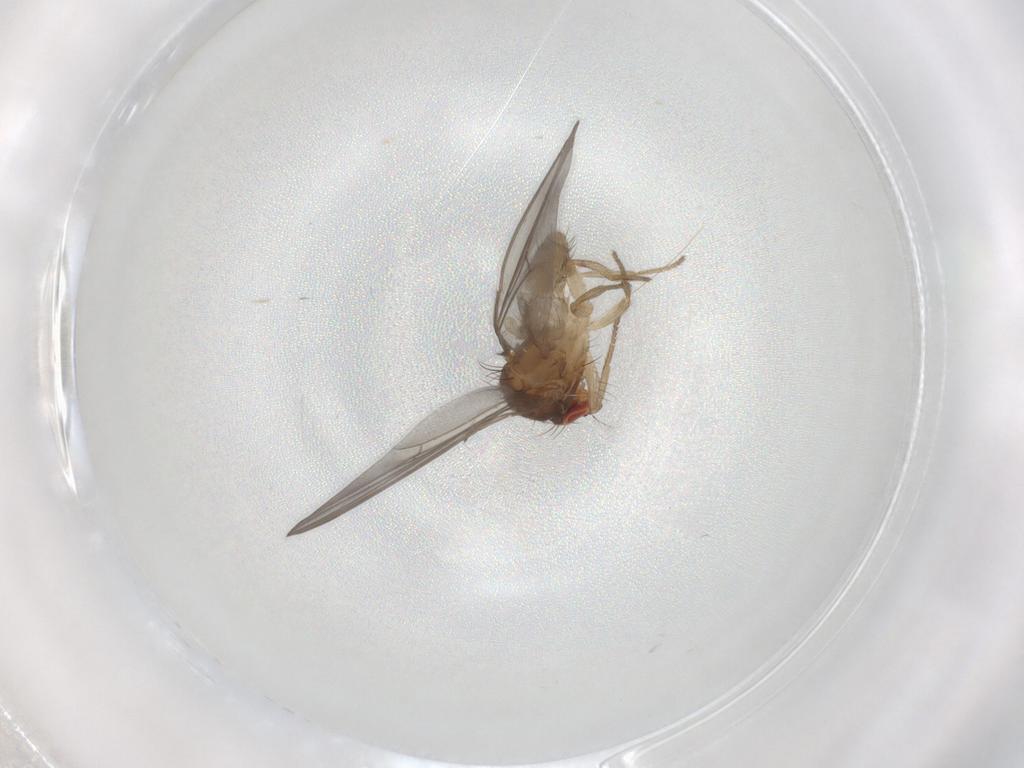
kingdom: Animalia
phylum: Arthropoda
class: Insecta
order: Diptera
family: Drosophilidae
